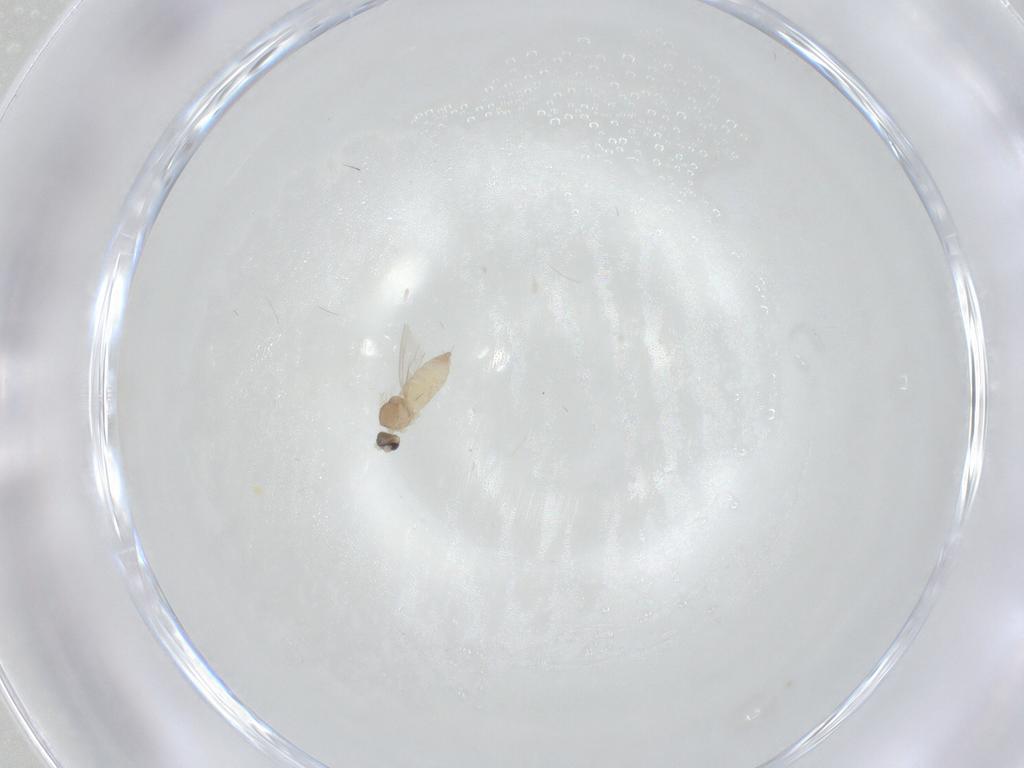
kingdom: Animalia
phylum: Arthropoda
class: Insecta
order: Diptera
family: Cecidomyiidae
